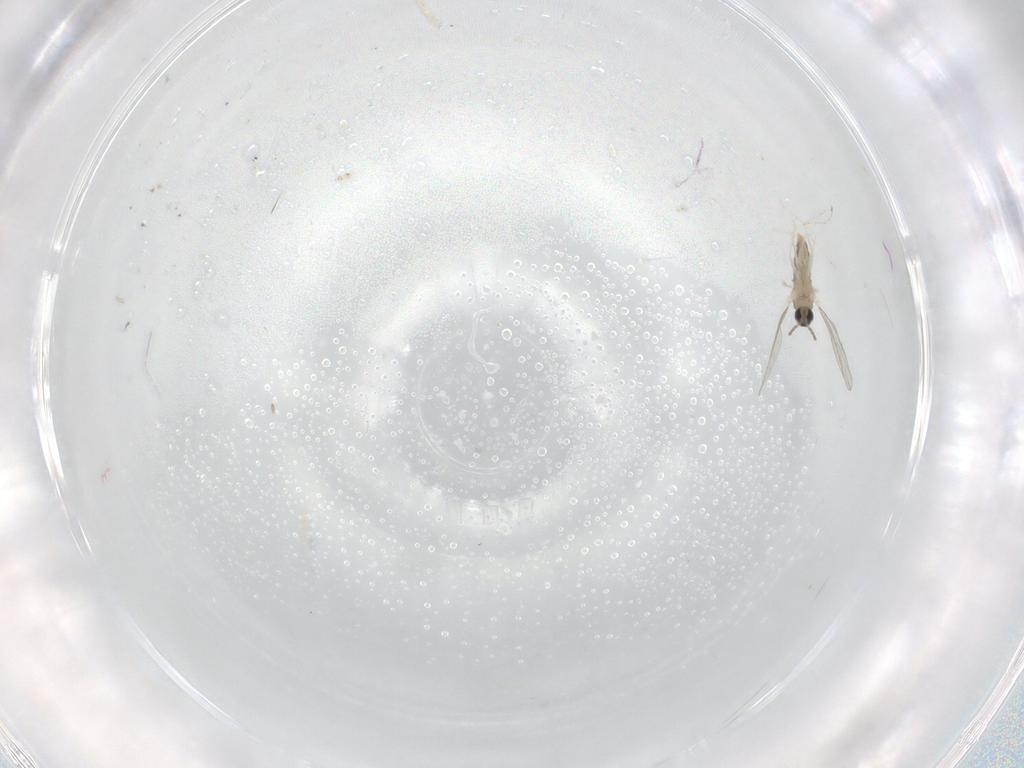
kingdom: Animalia
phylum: Arthropoda
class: Insecta
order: Diptera
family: Cecidomyiidae
